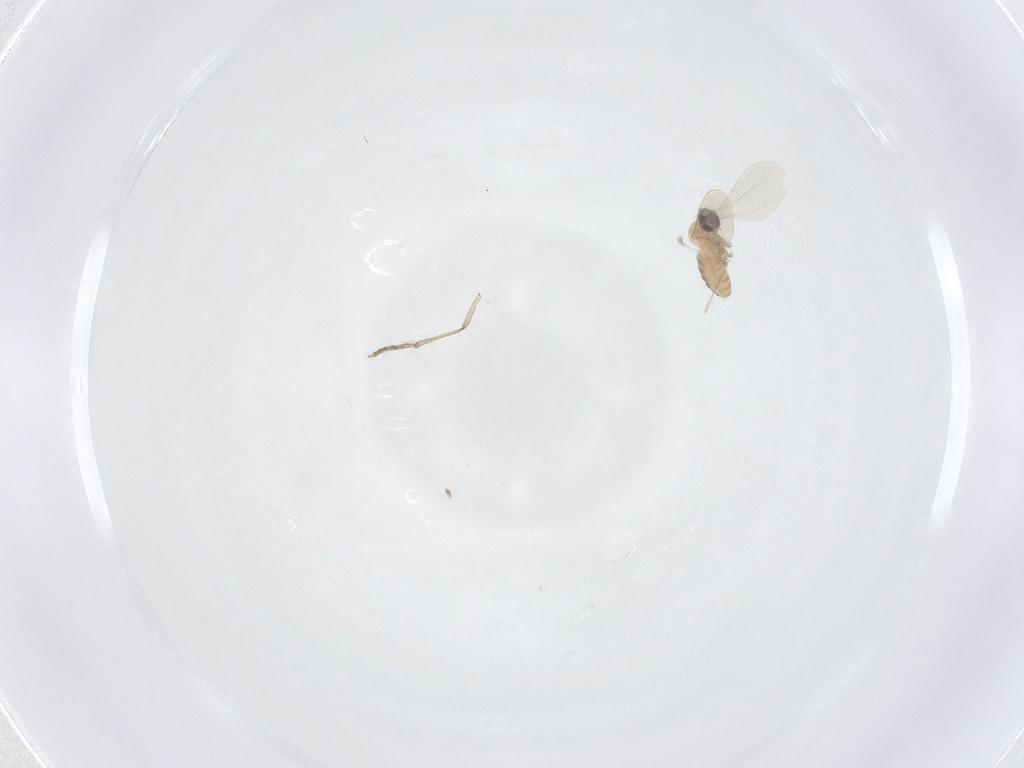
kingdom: Animalia
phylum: Arthropoda
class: Insecta
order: Diptera
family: Cecidomyiidae
